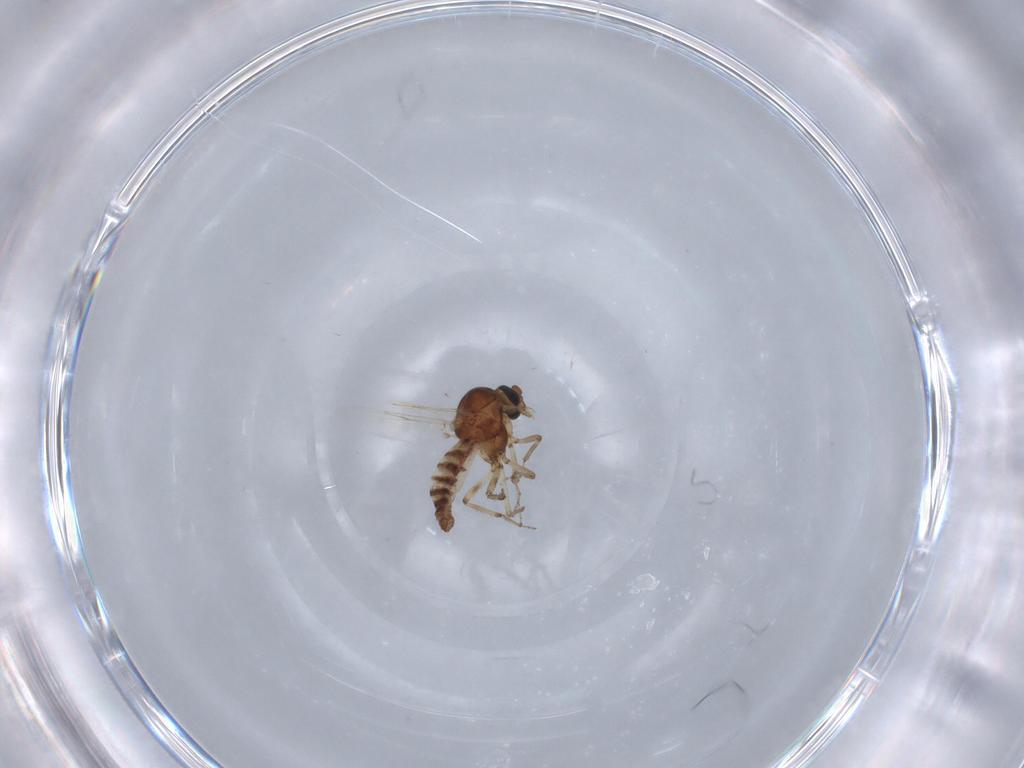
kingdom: Animalia
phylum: Arthropoda
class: Insecta
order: Diptera
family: Ceratopogonidae
